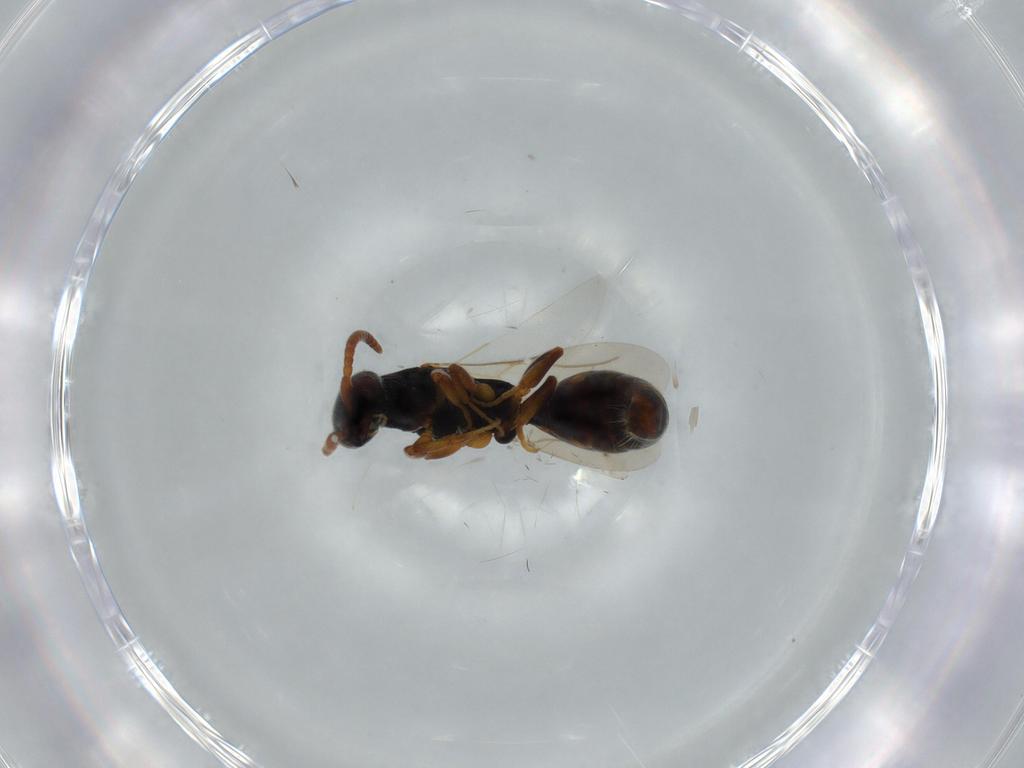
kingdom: Animalia
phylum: Arthropoda
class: Insecta
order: Hymenoptera
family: Bethylidae
